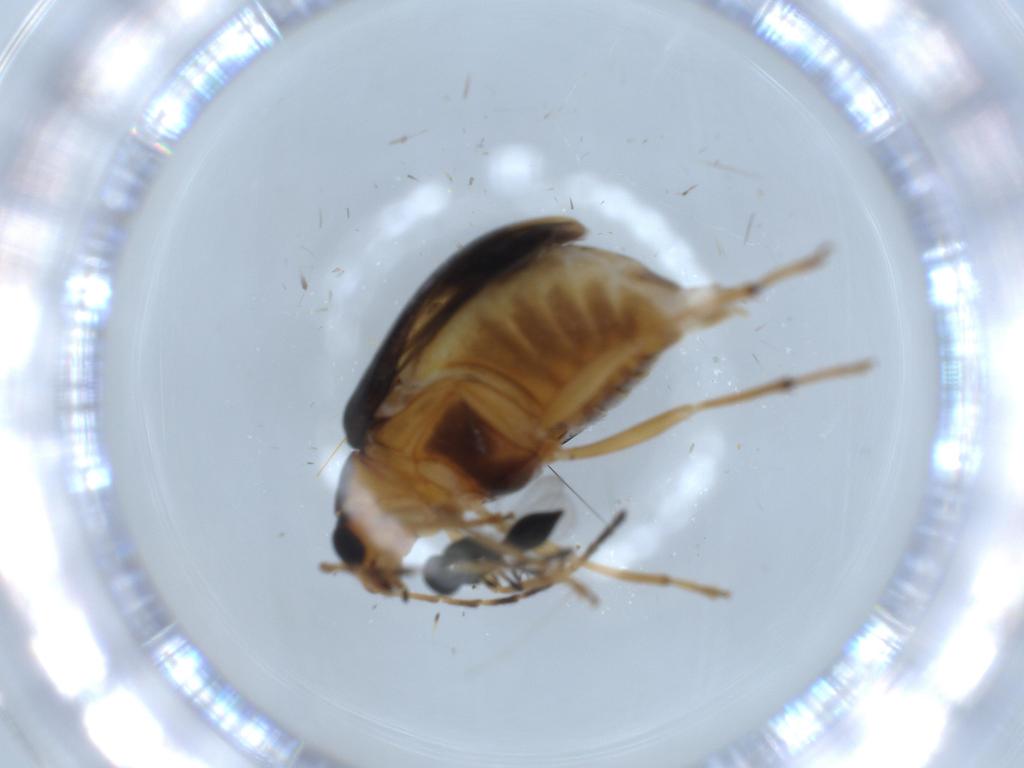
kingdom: Animalia
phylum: Arthropoda
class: Insecta
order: Coleoptera
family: Chrysomelidae
